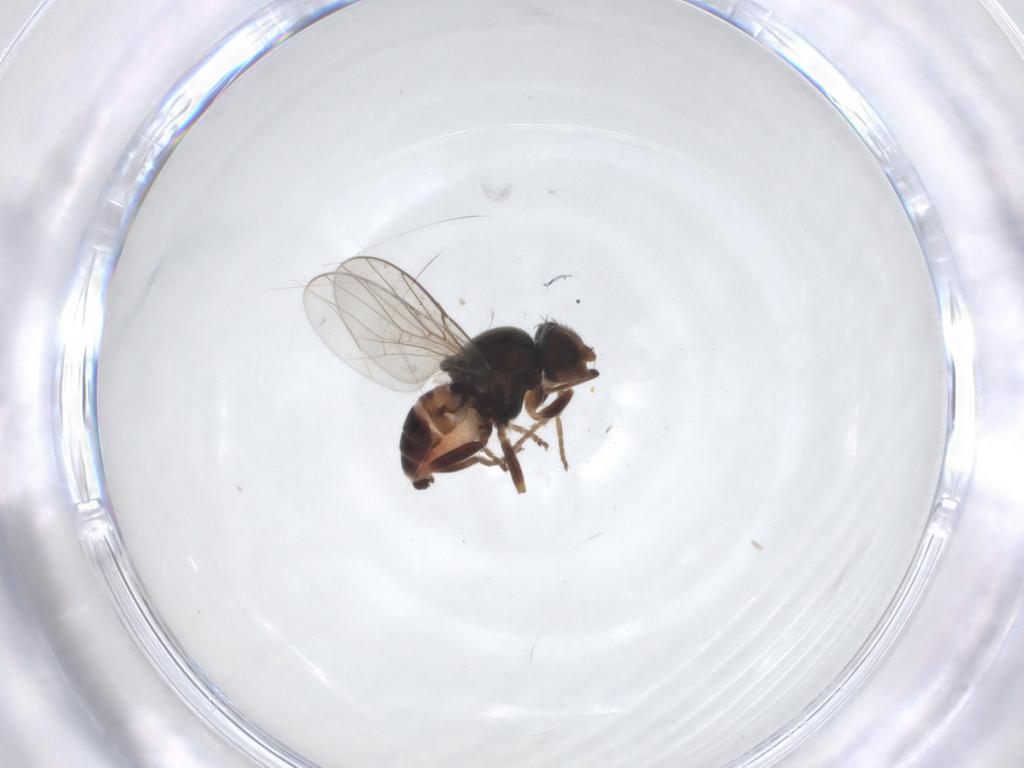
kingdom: Animalia
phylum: Arthropoda
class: Insecta
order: Diptera
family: Chloropidae
